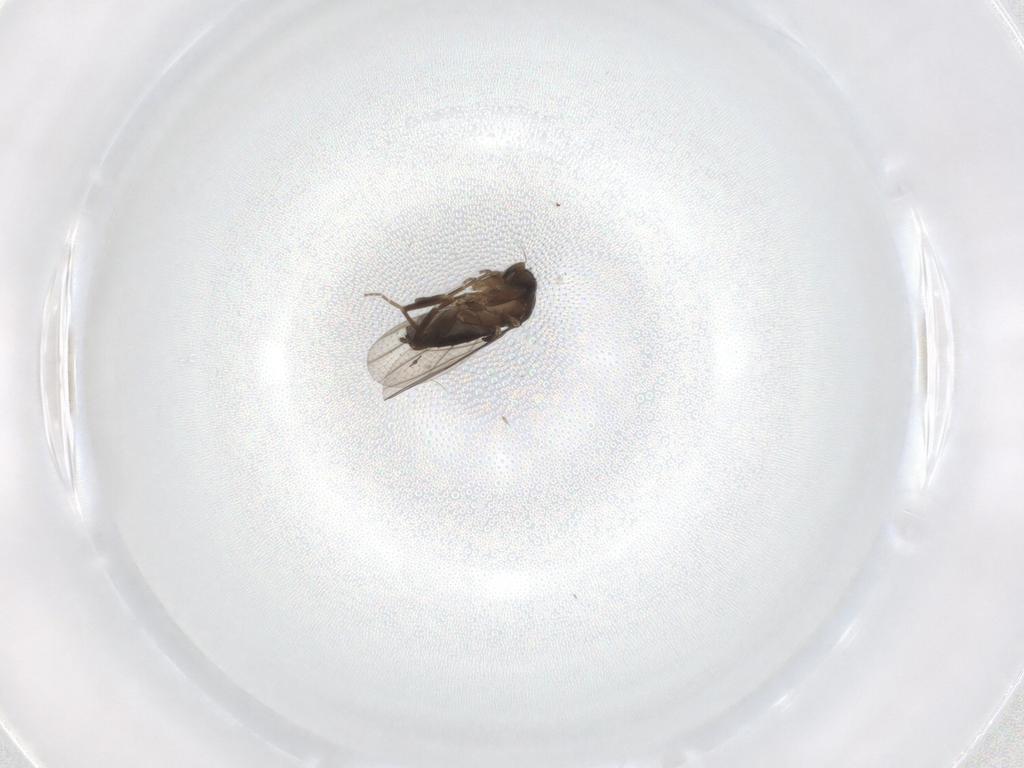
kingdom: Animalia
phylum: Arthropoda
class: Insecta
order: Diptera
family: Phoridae
